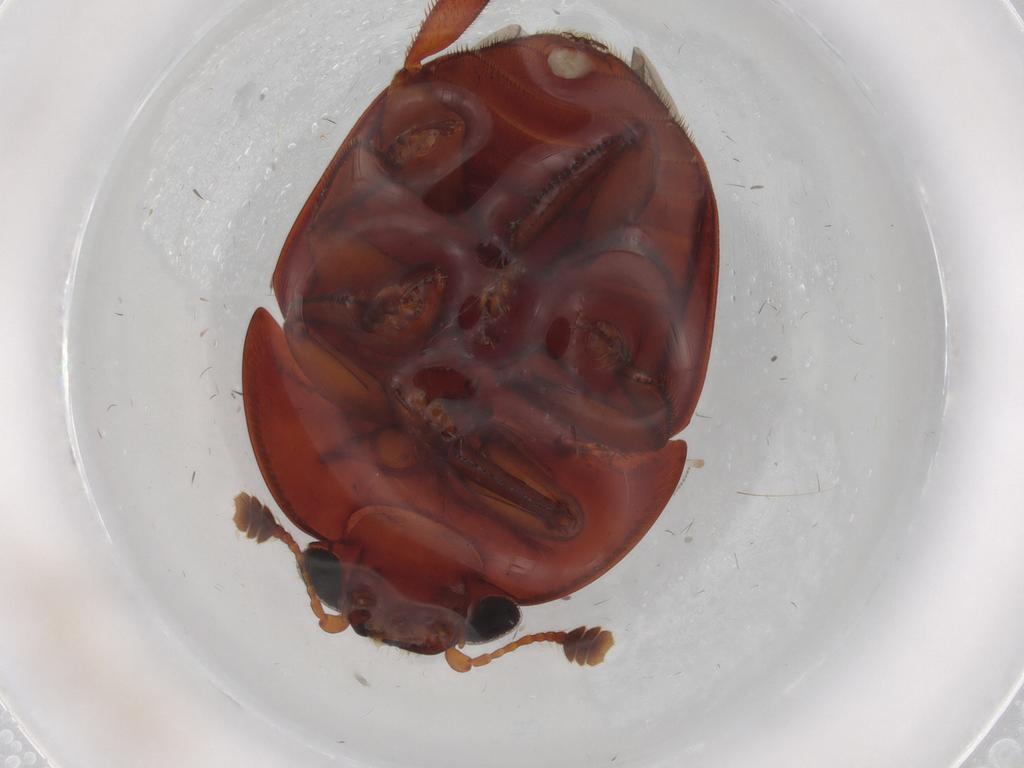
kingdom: Animalia
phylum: Arthropoda
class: Insecta
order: Coleoptera
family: Nitidulidae
